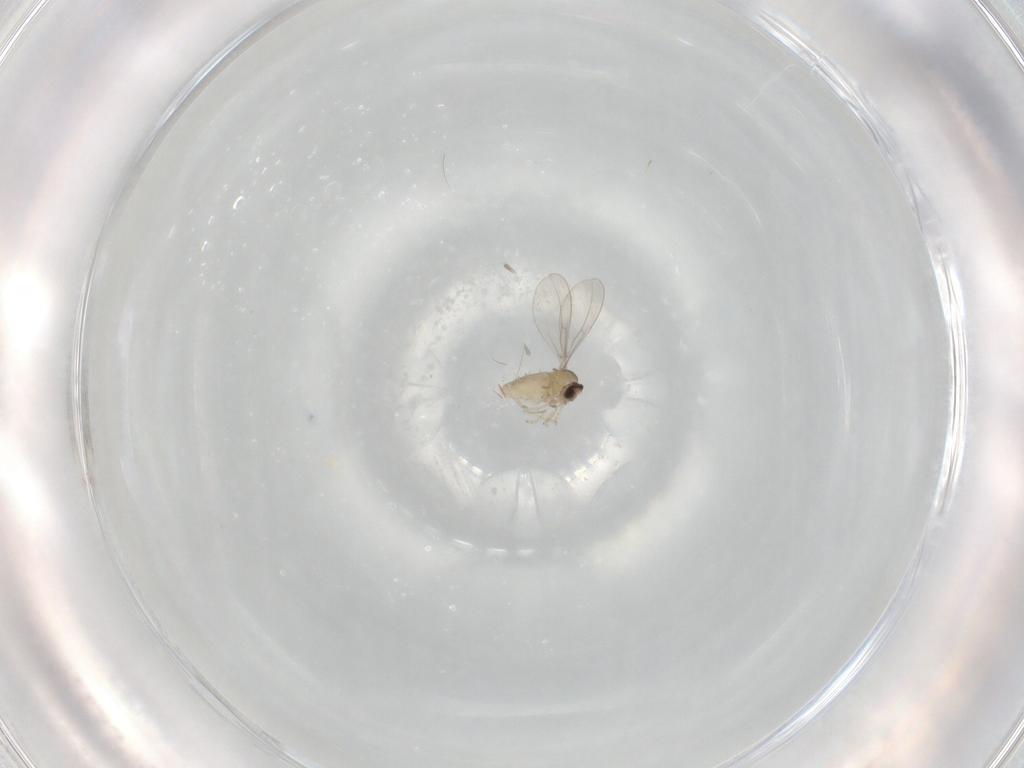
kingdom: Animalia
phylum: Arthropoda
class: Insecta
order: Diptera
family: Cecidomyiidae
